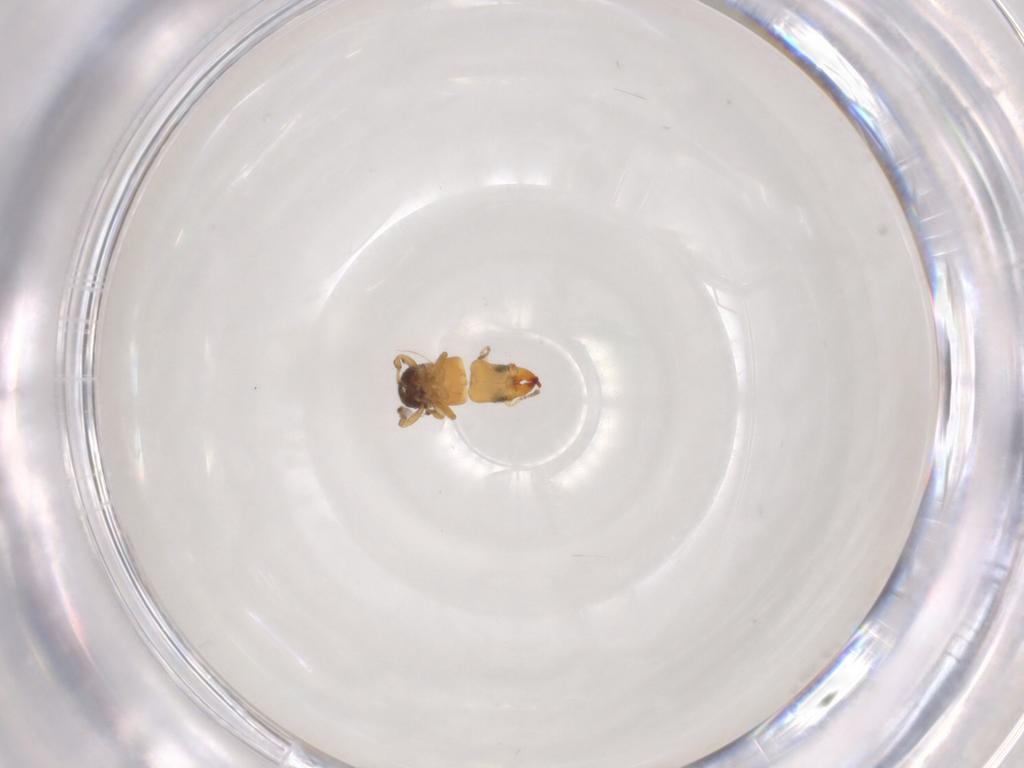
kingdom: Animalia
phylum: Arthropoda
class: Insecta
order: Hymenoptera
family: Pteromalidae
